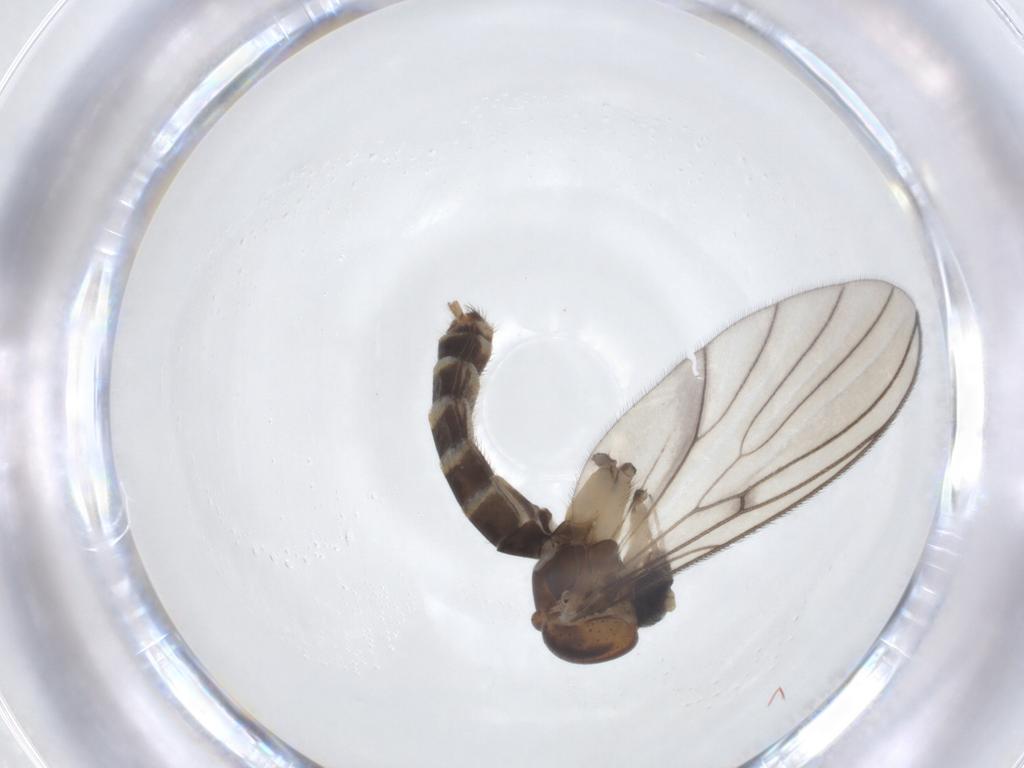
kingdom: Animalia
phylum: Arthropoda
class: Insecta
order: Diptera
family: Mycetophilidae
